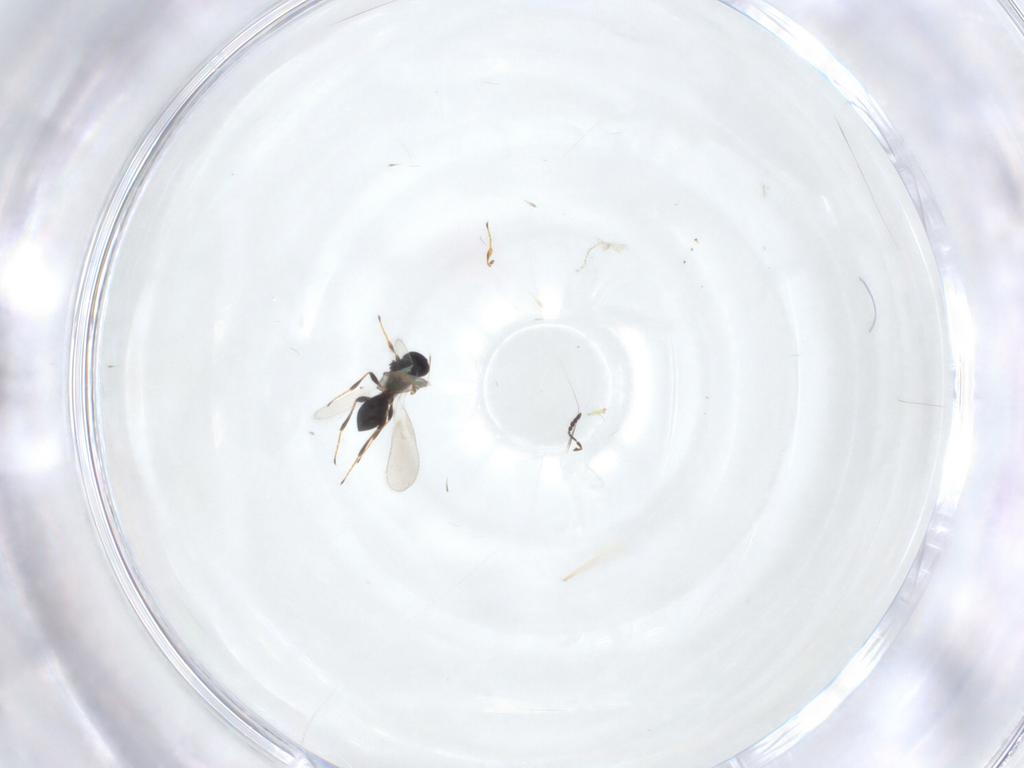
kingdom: Animalia
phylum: Arthropoda
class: Insecta
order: Hymenoptera
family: Platygastridae
